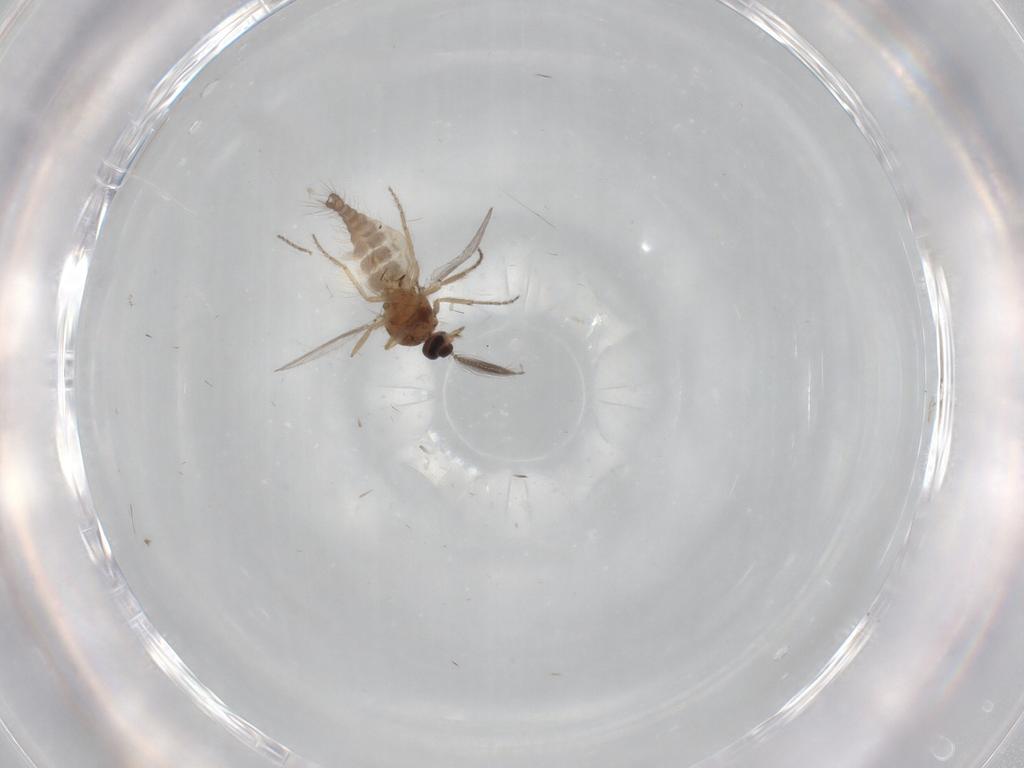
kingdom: Animalia
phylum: Arthropoda
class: Insecta
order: Diptera
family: Ceratopogonidae
